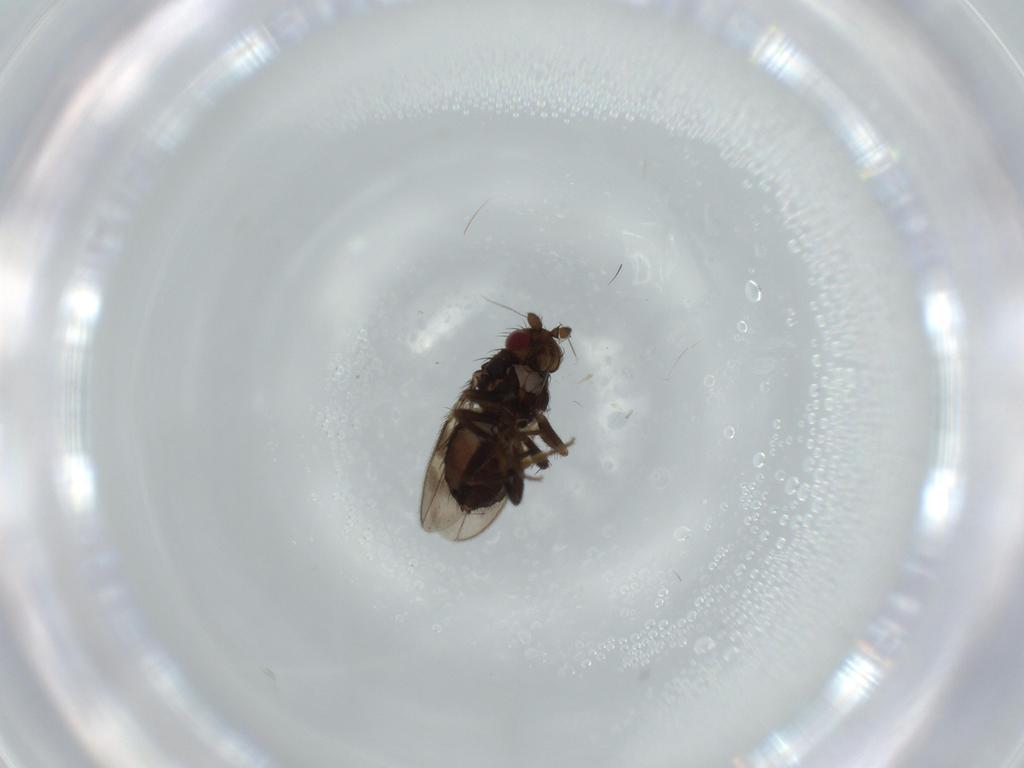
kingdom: Animalia
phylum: Arthropoda
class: Insecta
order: Diptera
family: Sphaeroceridae
